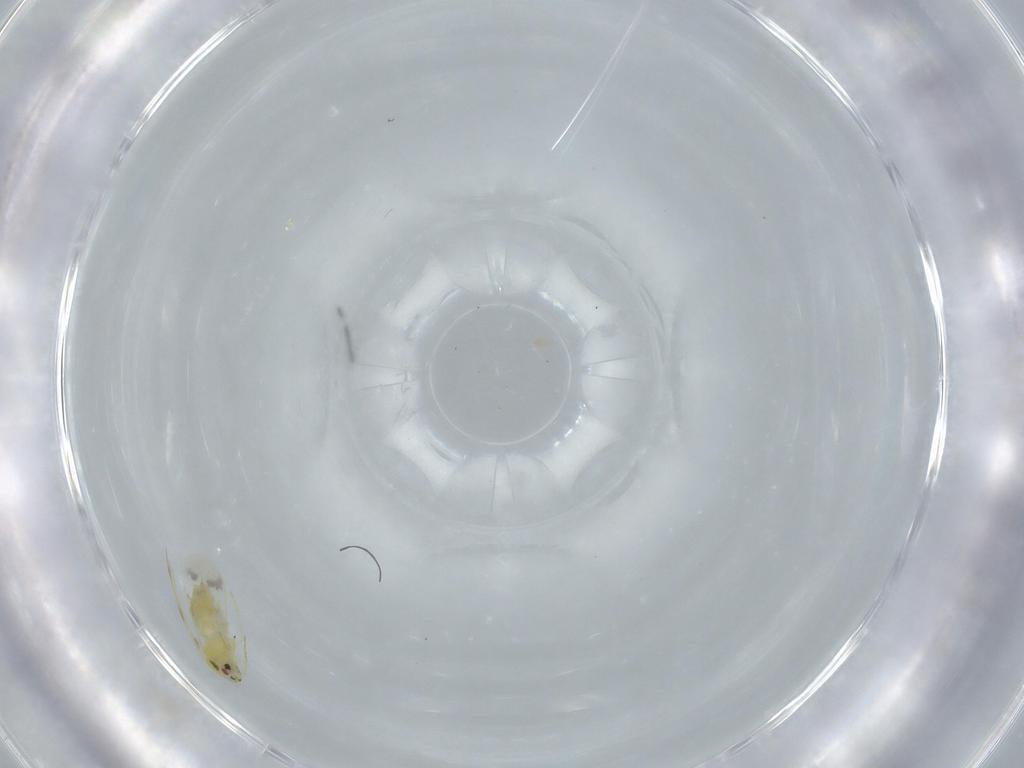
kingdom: Animalia
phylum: Arthropoda
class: Insecta
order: Hemiptera
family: Aleyrodidae
